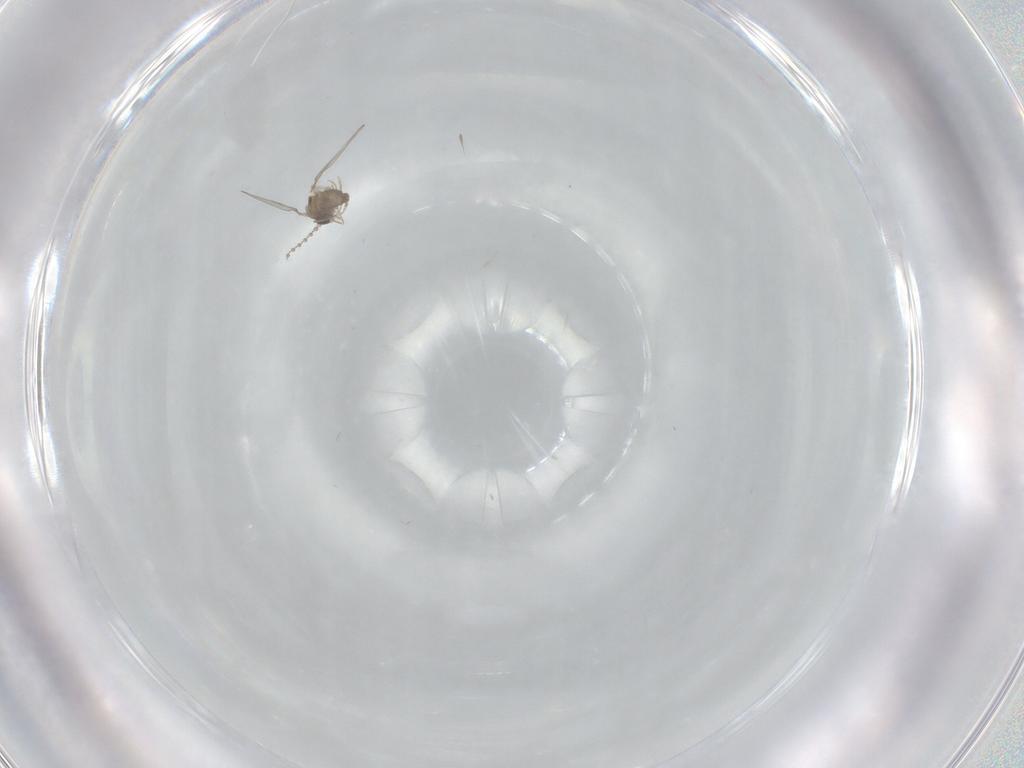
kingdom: Animalia
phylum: Arthropoda
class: Insecta
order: Diptera
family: Cecidomyiidae
